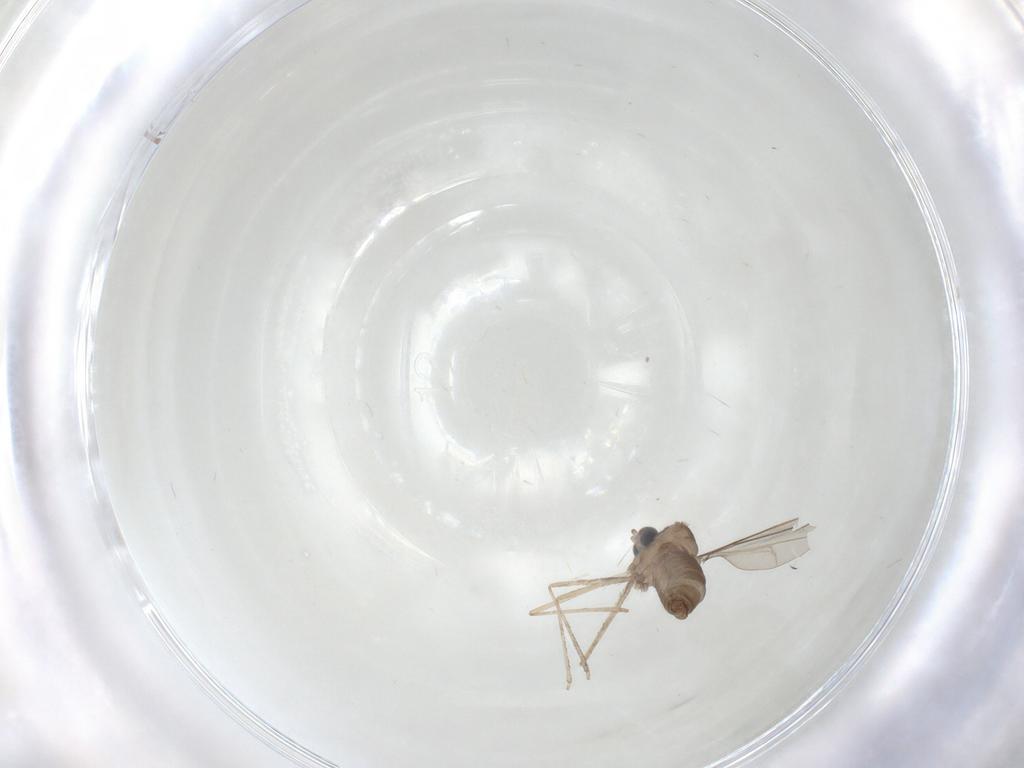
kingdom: Animalia
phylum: Arthropoda
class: Insecta
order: Diptera
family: Cecidomyiidae
